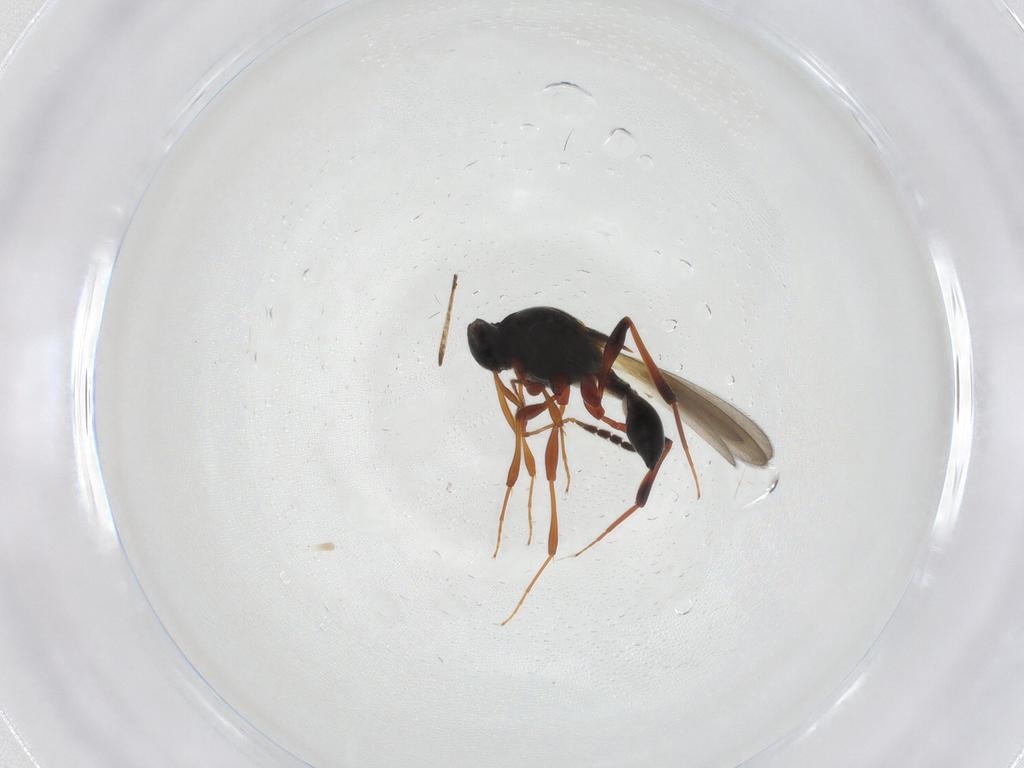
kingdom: Animalia
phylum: Arthropoda
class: Insecta
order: Hymenoptera
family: Platygastridae
